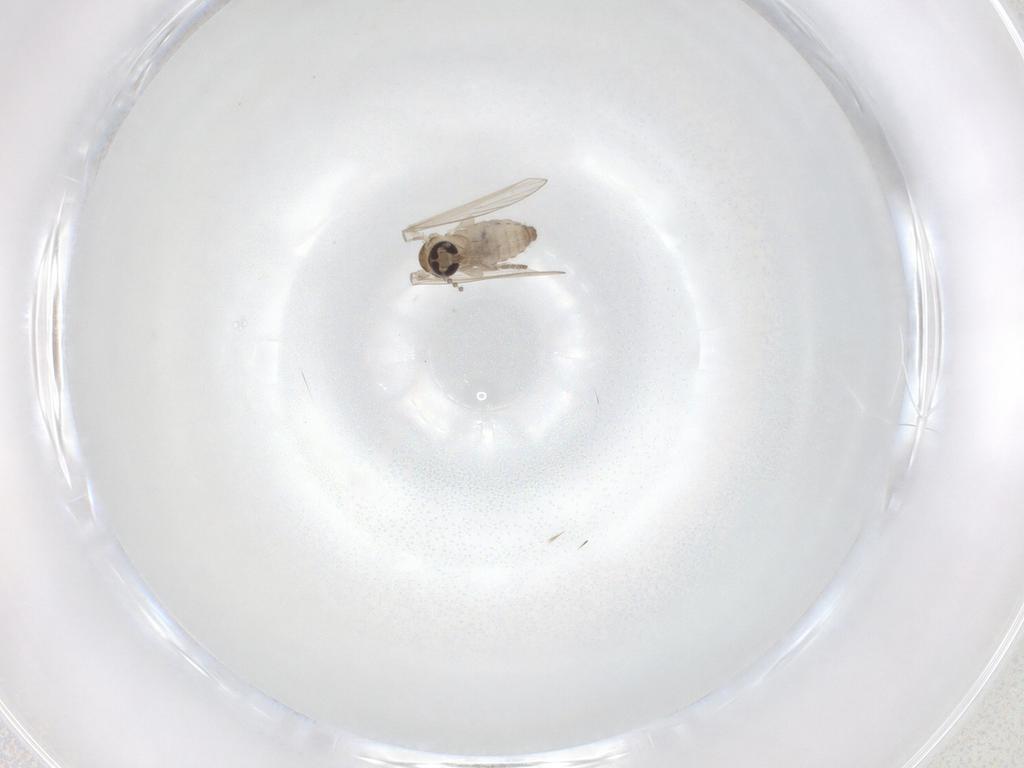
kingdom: Animalia
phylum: Arthropoda
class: Insecta
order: Diptera
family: Psychodidae
